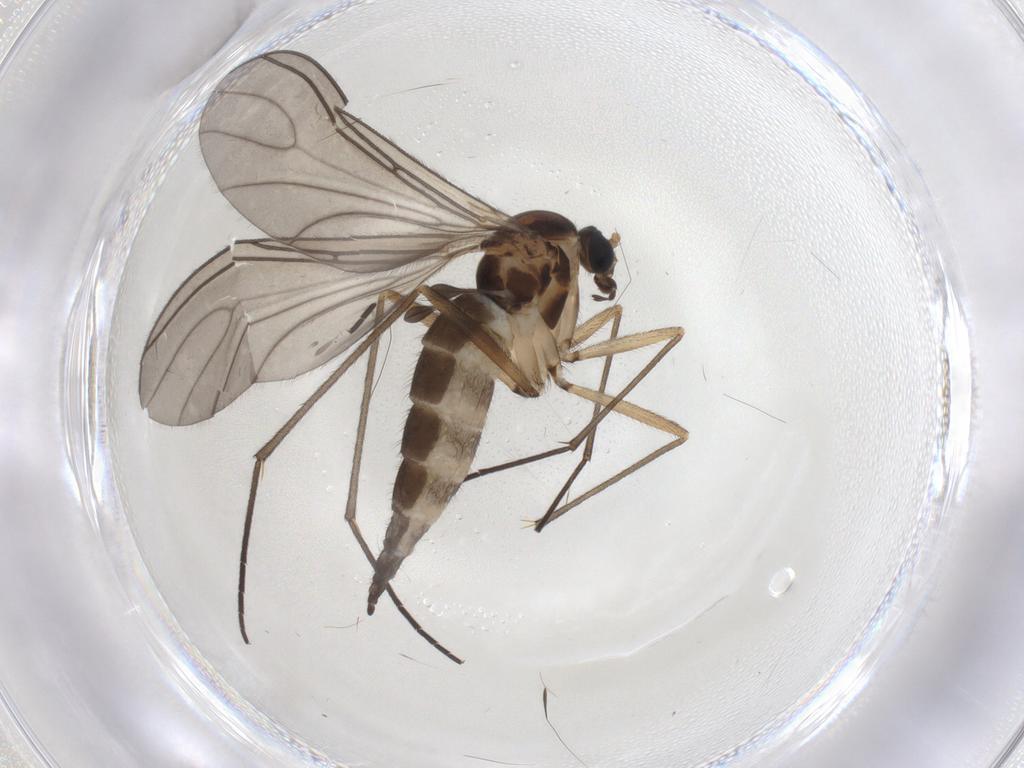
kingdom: Animalia
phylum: Arthropoda
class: Insecta
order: Diptera
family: Sciaridae
